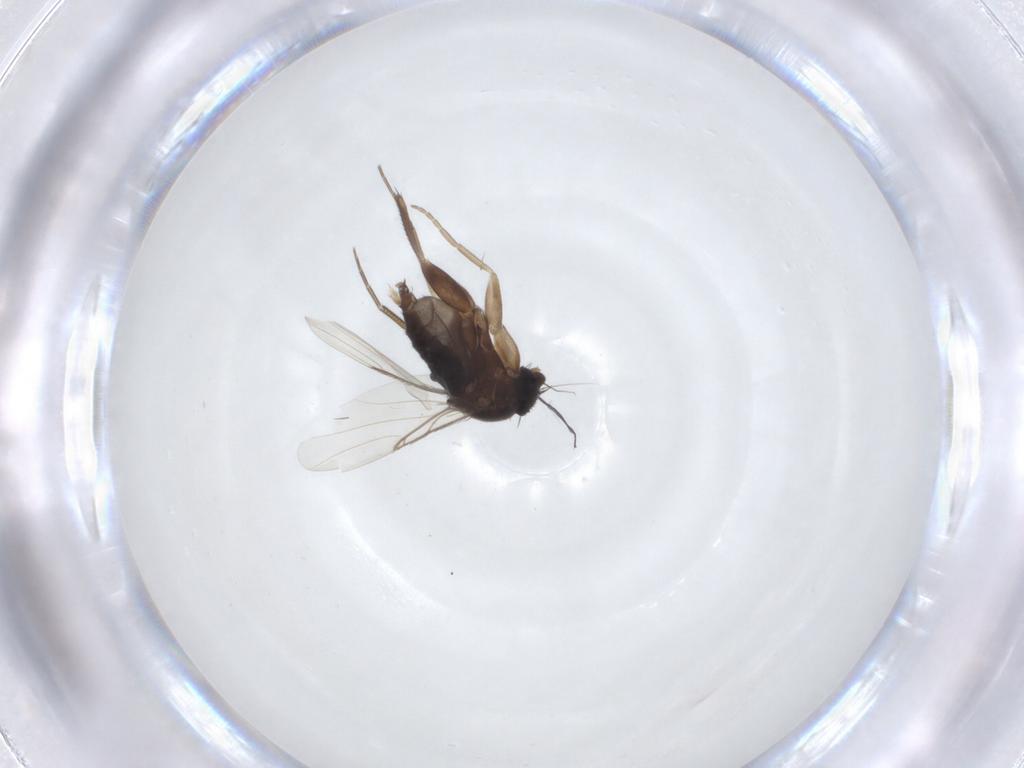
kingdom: Animalia
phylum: Arthropoda
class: Insecta
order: Diptera
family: Phoridae
